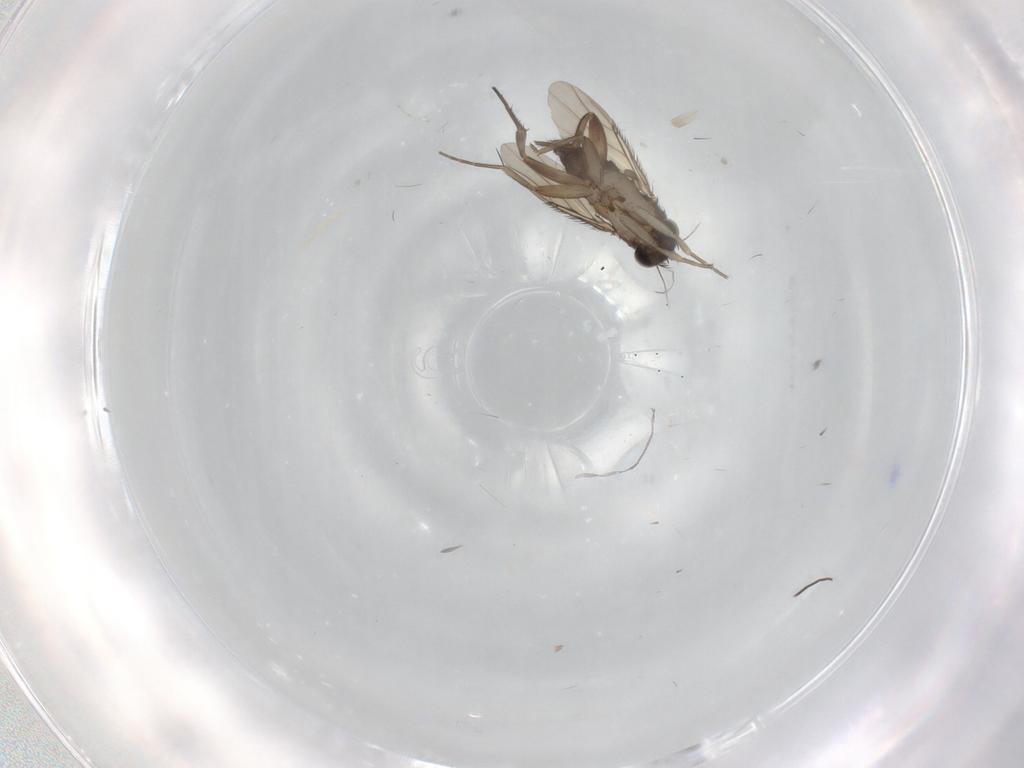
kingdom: Animalia
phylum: Arthropoda
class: Insecta
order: Diptera
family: Phoridae
